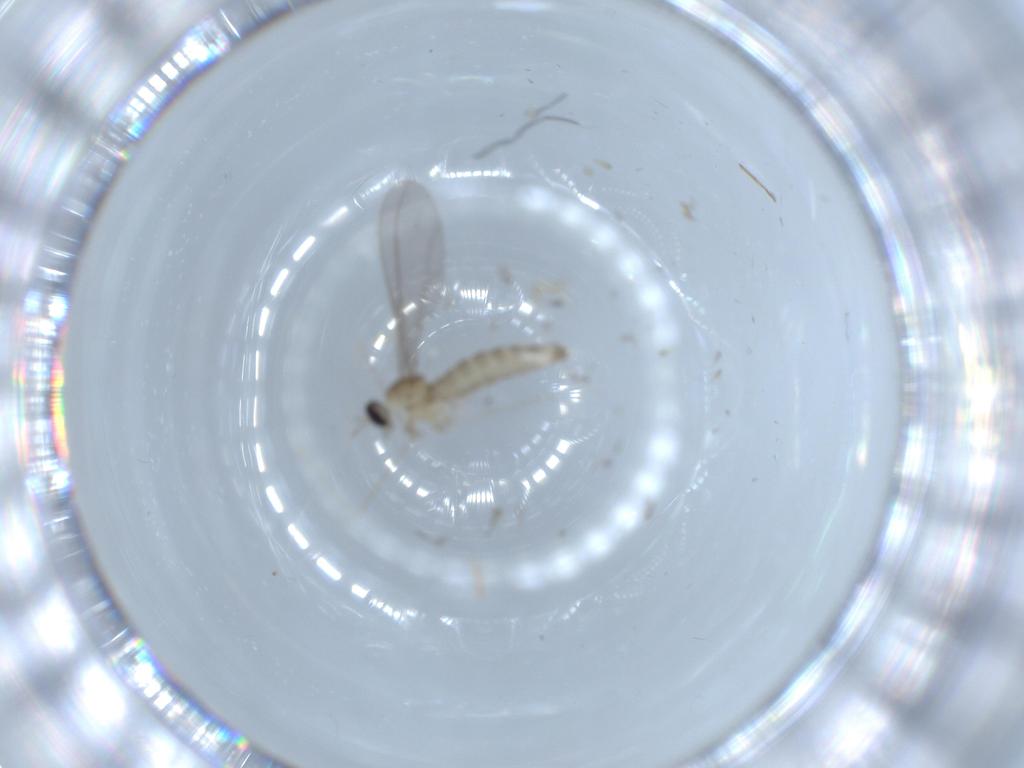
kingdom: Animalia
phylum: Arthropoda
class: Insecta
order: Diptera
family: Cecidomyiidae
